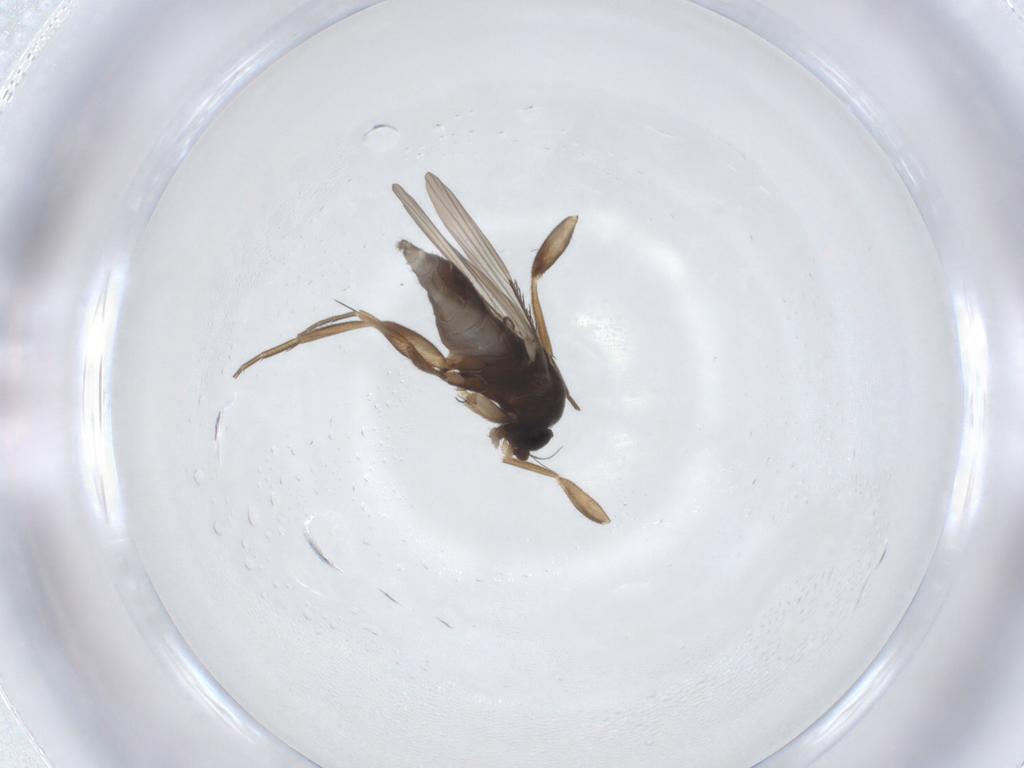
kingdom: Animalia
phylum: Arthropoda
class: Insecta
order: Diptera
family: Phoridae
